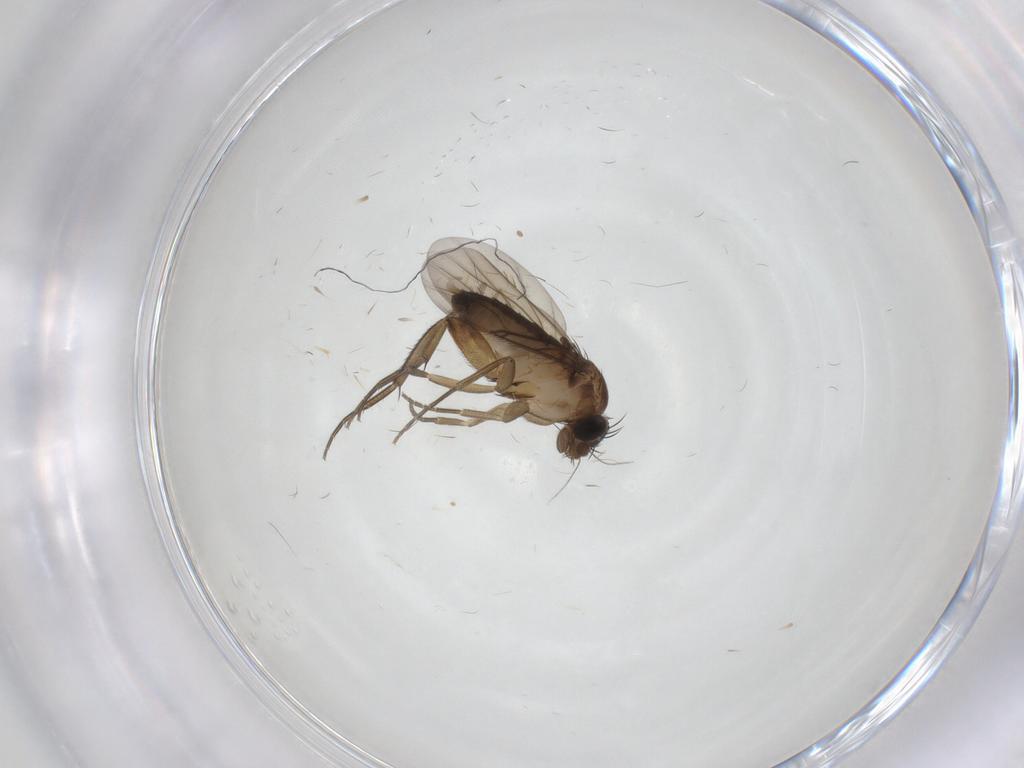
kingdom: Animalia
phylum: Arthropoda
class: Insecta
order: Diptera
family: Phoridae
